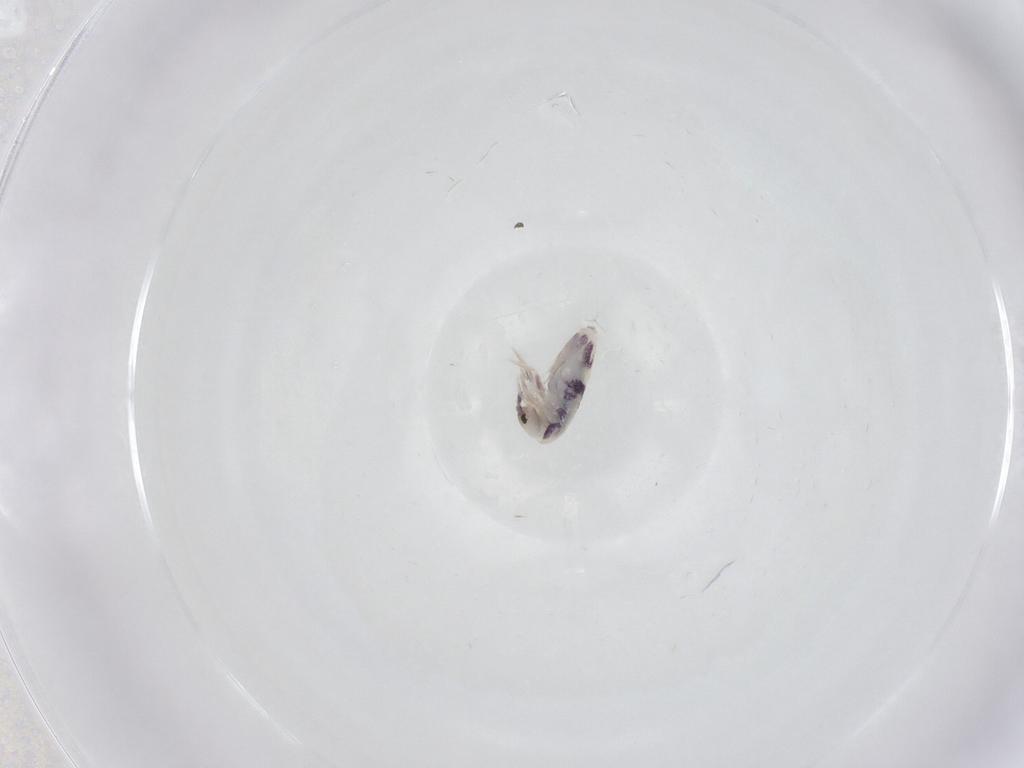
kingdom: Animalia
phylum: Arthropoda
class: Collembola
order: Entomobryomorpha
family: Entomobryidae
